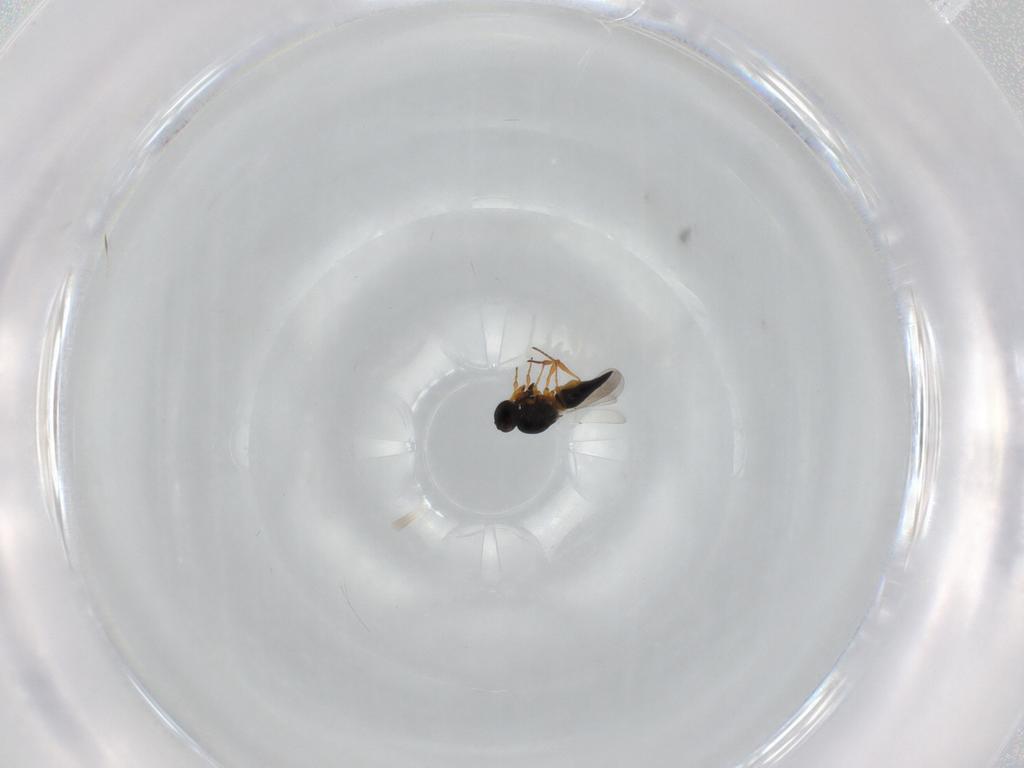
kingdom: Animalia
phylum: Arthropoda
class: Insecta
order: Hymenoptera
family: Platygastridae
